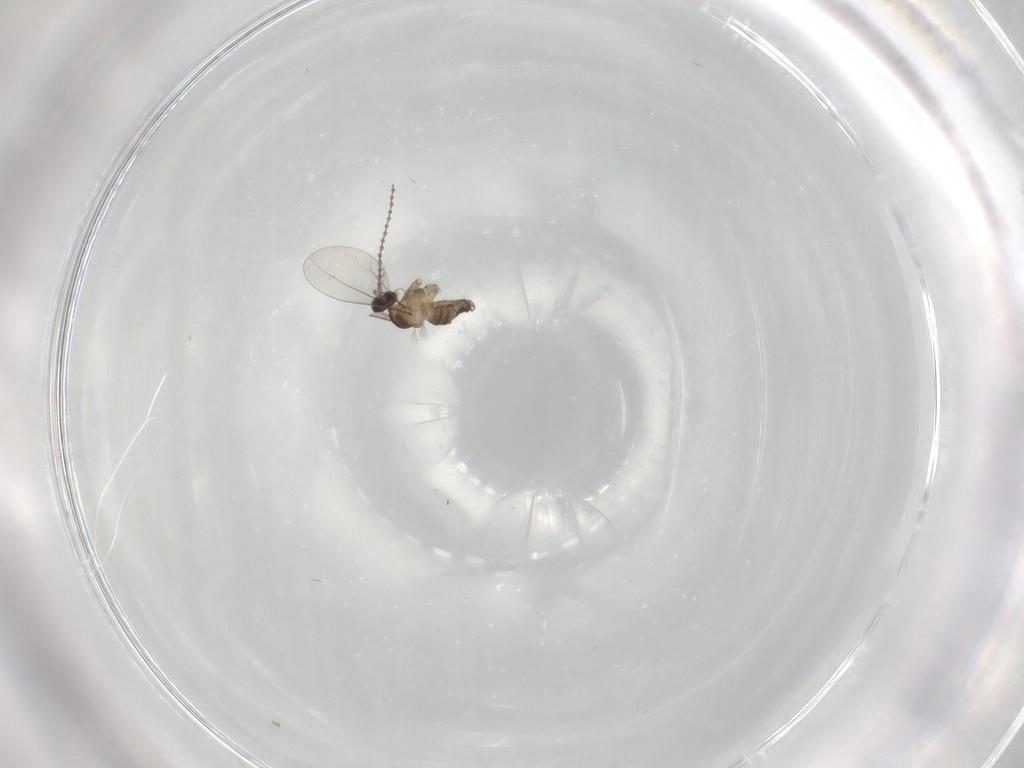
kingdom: Animalia
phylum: Arthropoda
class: Insecta
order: Diptera
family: Cecidomyiidae
